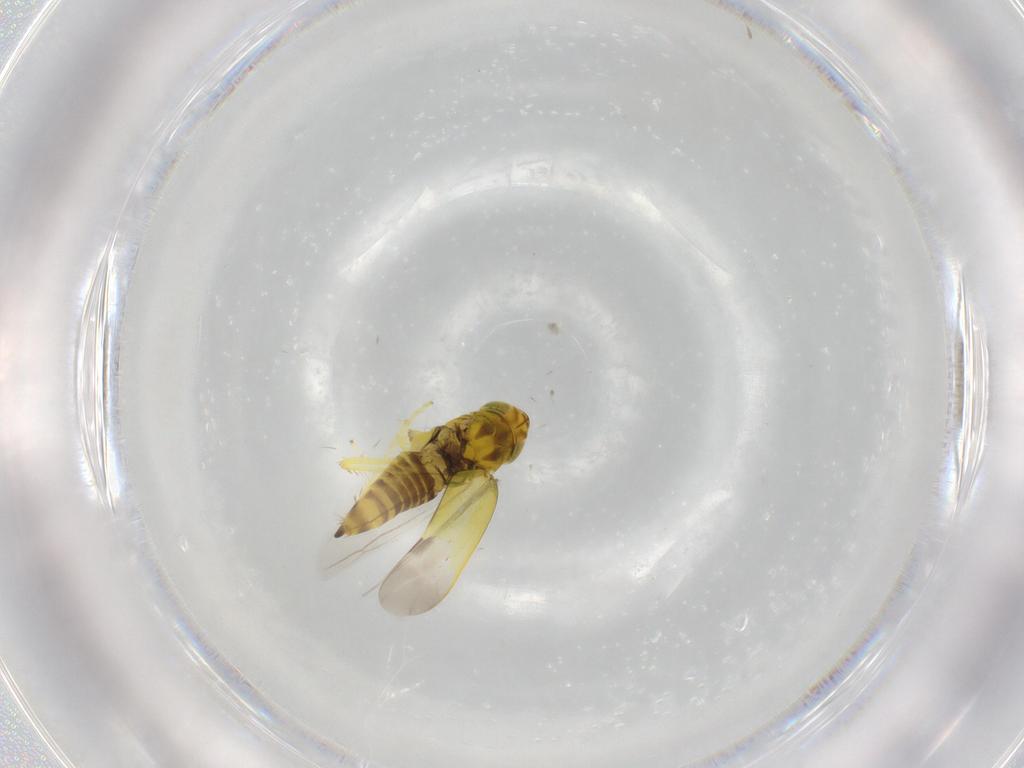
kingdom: Animalia
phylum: Arthropoda
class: Insecta
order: Hemiptera
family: Cicadellidae
